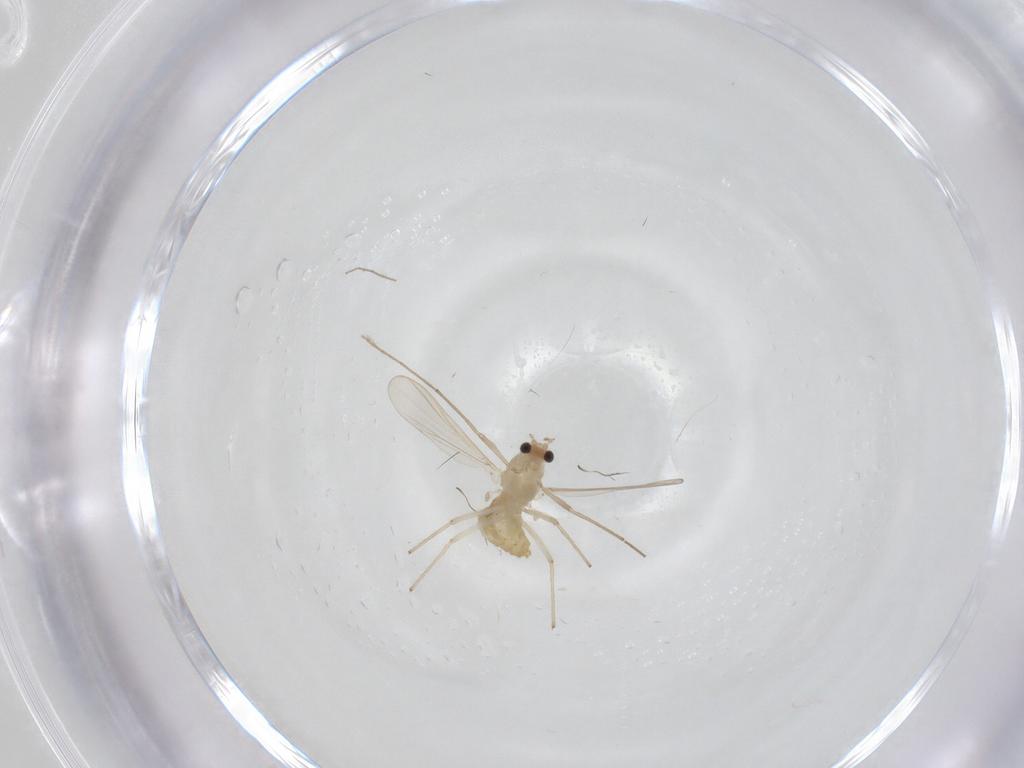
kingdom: Animalia
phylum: Arthropoda
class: Insecta
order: Diptera
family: Chironomidae
